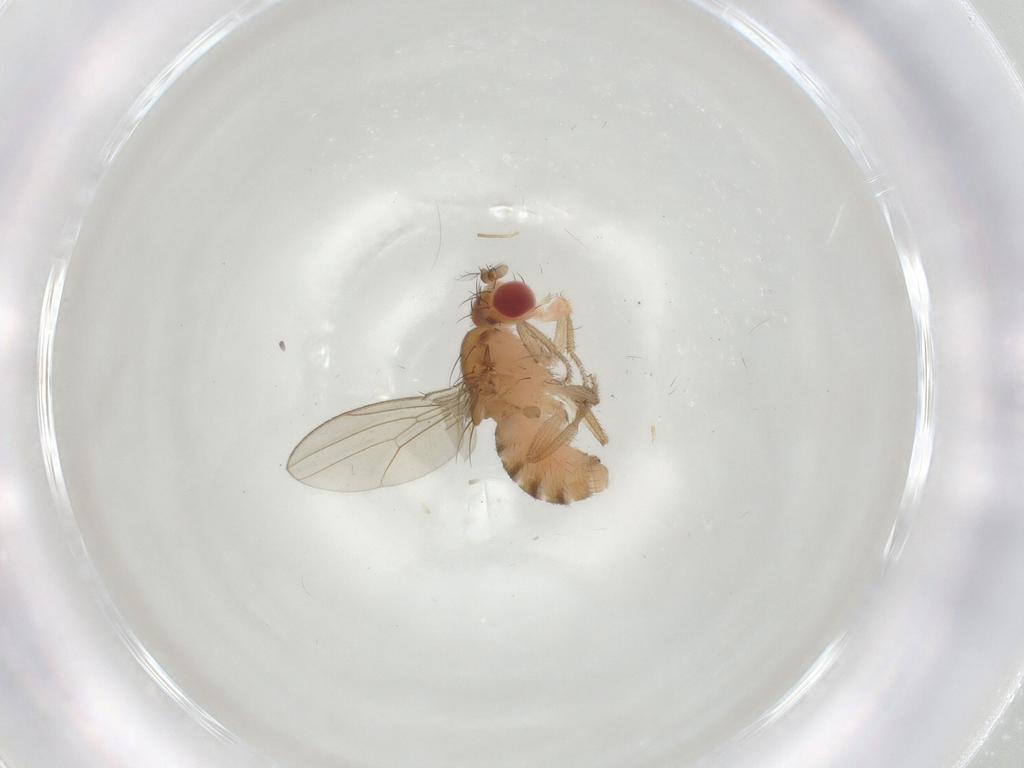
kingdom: Animalia
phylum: Arthropoda
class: Insecta
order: Diptera
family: Drosophilidae
